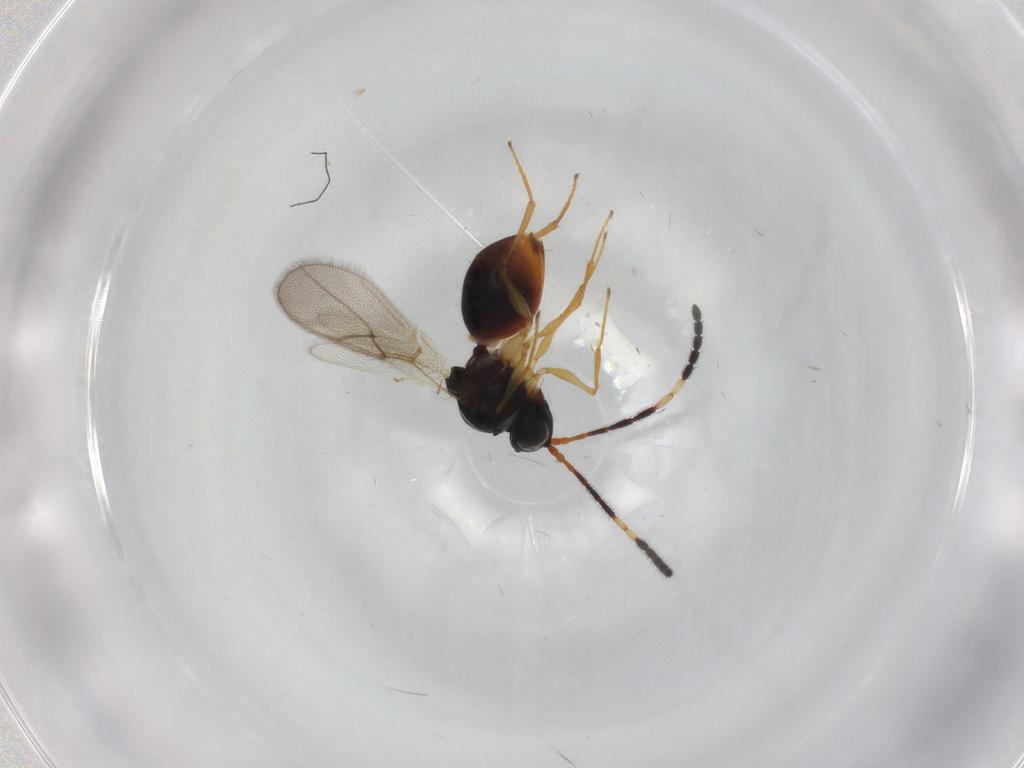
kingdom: Animalia
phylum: Arthropoda
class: Insecta
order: Hymenoptera
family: Figitidae
